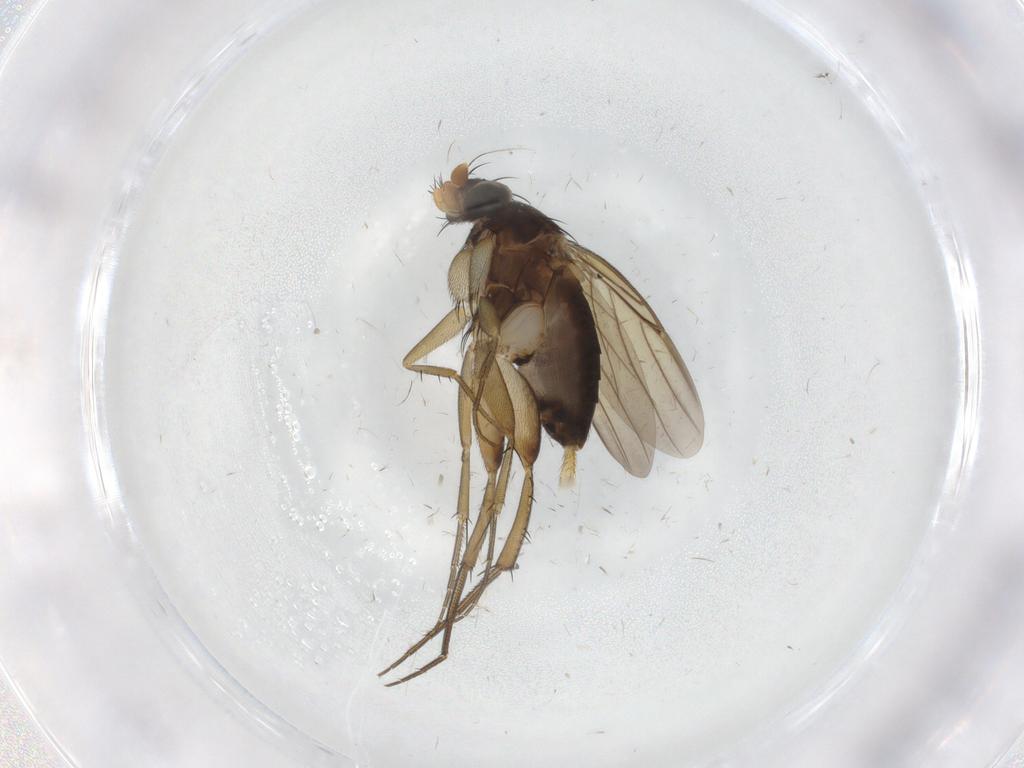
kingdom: Animalia
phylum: Arthropoda
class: Insecta
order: Diptera
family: Phoridae
